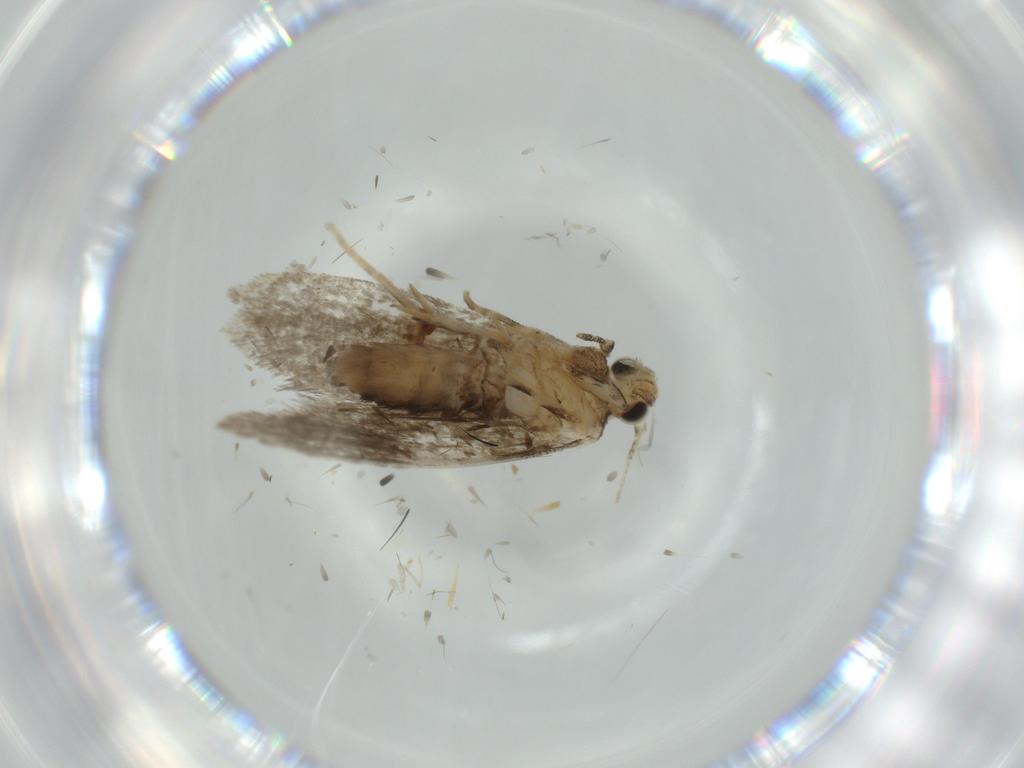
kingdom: Animalia
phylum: Arthropoda
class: Insecta
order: Lepidoptera
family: Tineidae
